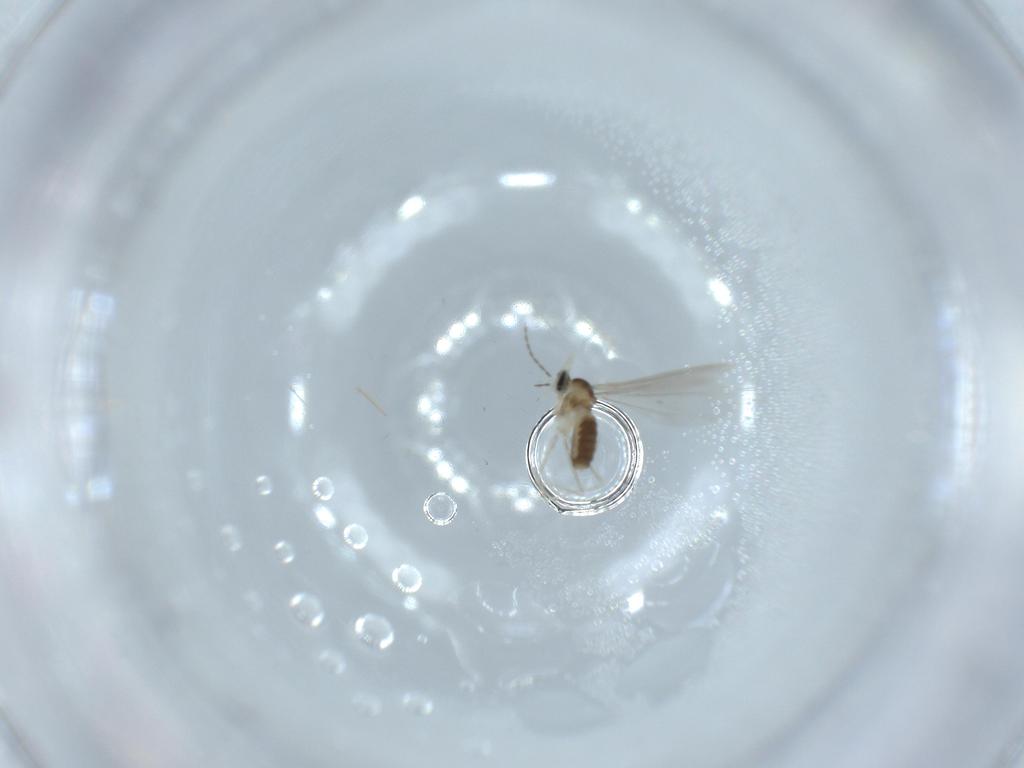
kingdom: Animalia
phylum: Arthropoda
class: Insecta
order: Diptera
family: Cecidomyiidae
